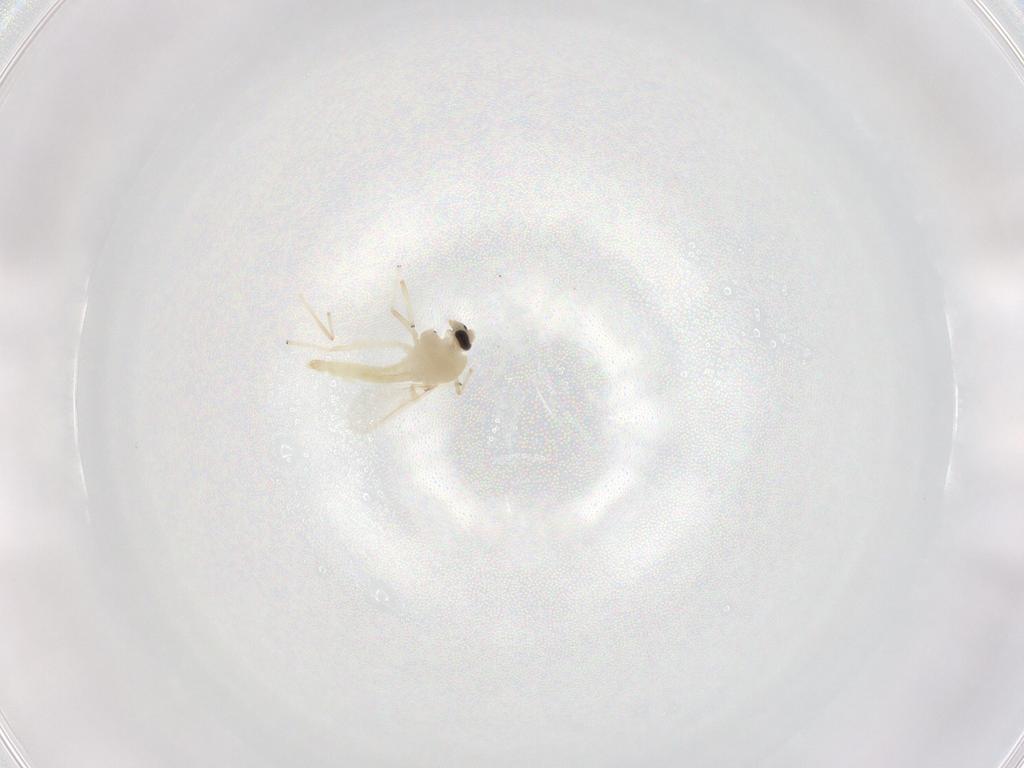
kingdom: Animalia
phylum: Arthropoda
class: Insecta
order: Diptera
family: Chironomidae
